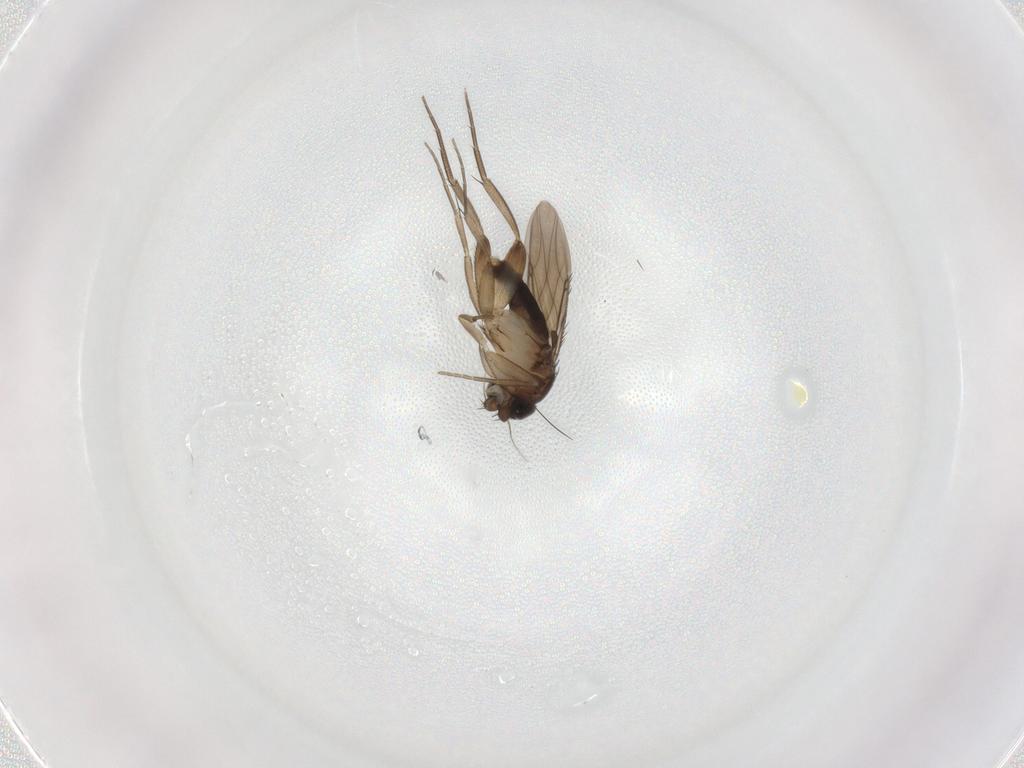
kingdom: Animalia
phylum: Arthropoda
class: Insecta
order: Diptera
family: Phoridae
